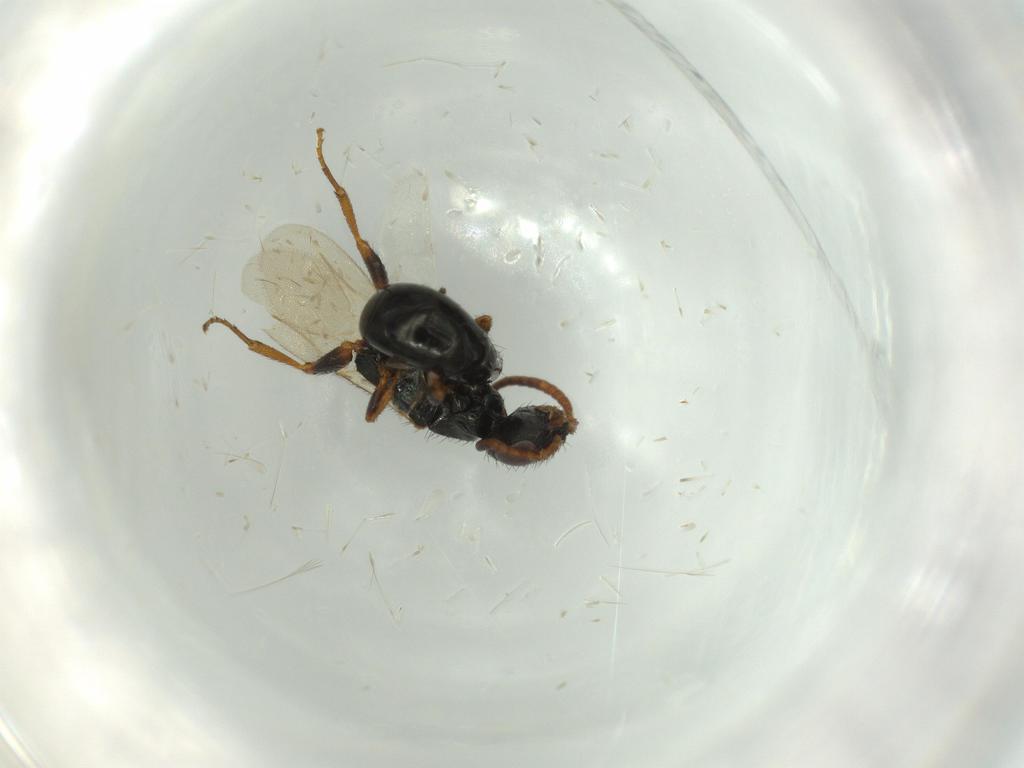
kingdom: Animalia
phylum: Arthropoda
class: Insecta
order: Hymenoptera
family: Bethylidae
